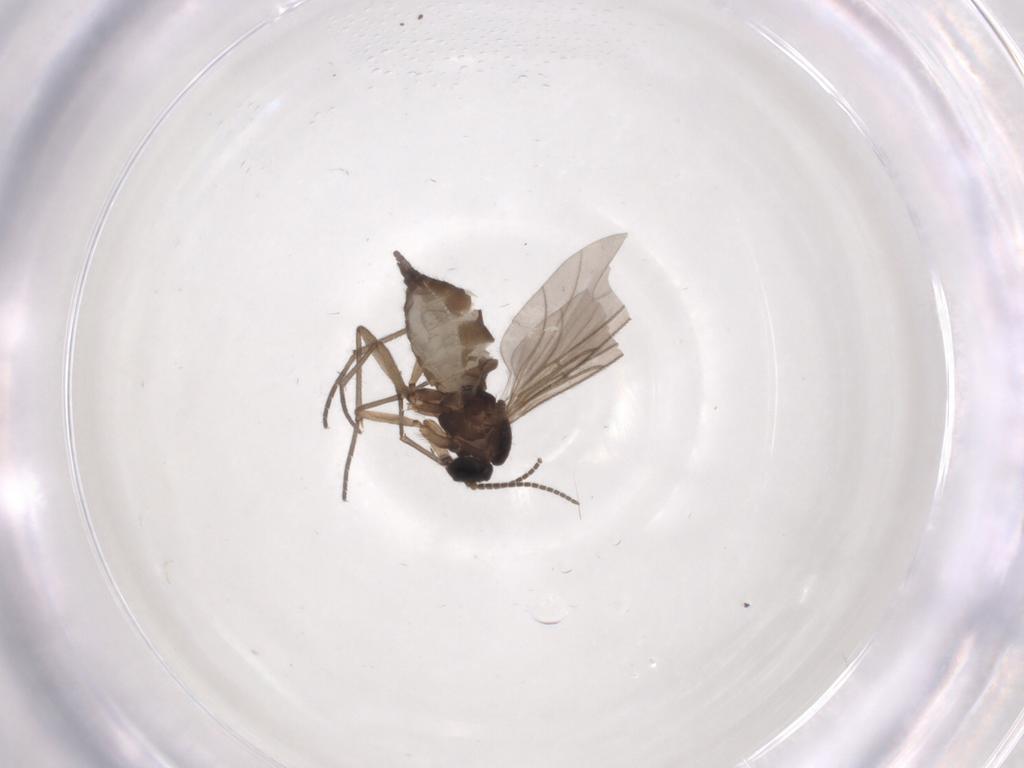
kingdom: Animalia
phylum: Arthropoda
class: Insecta
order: Diptera
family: Sciaridae
